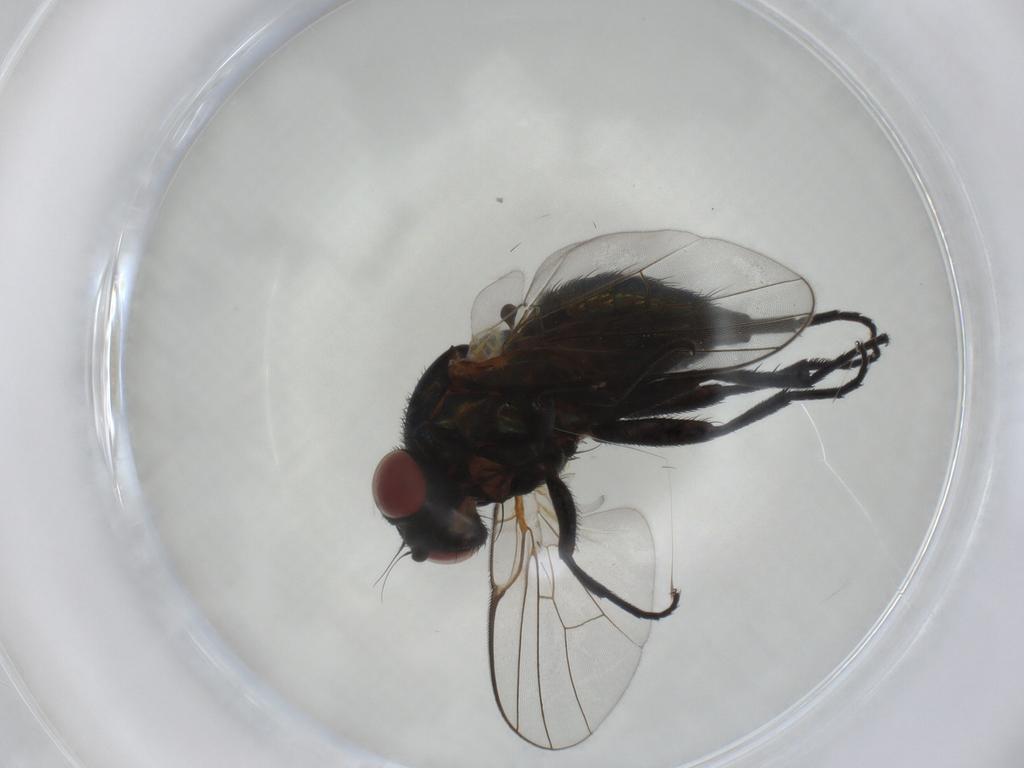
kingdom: Animalia
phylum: Arthropoda
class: Insecta
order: Diptera
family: Agromyzidae
